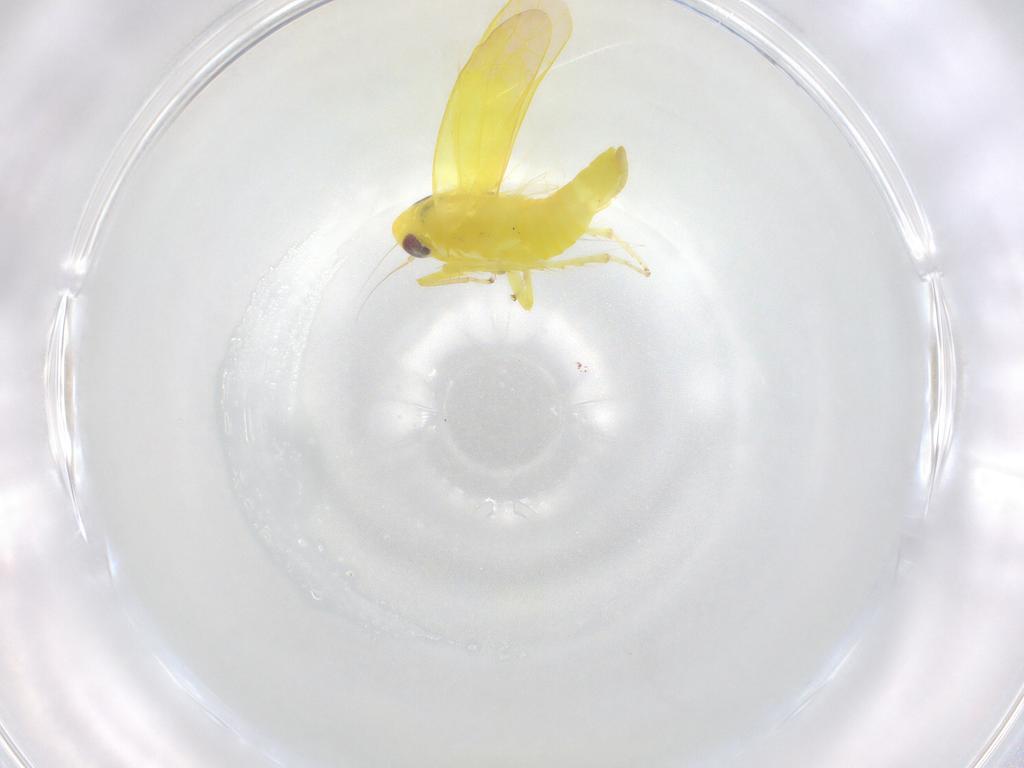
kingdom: Animalia
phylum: Arthropoda
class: Insecta
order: Hemiptera
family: Cicadellidae
